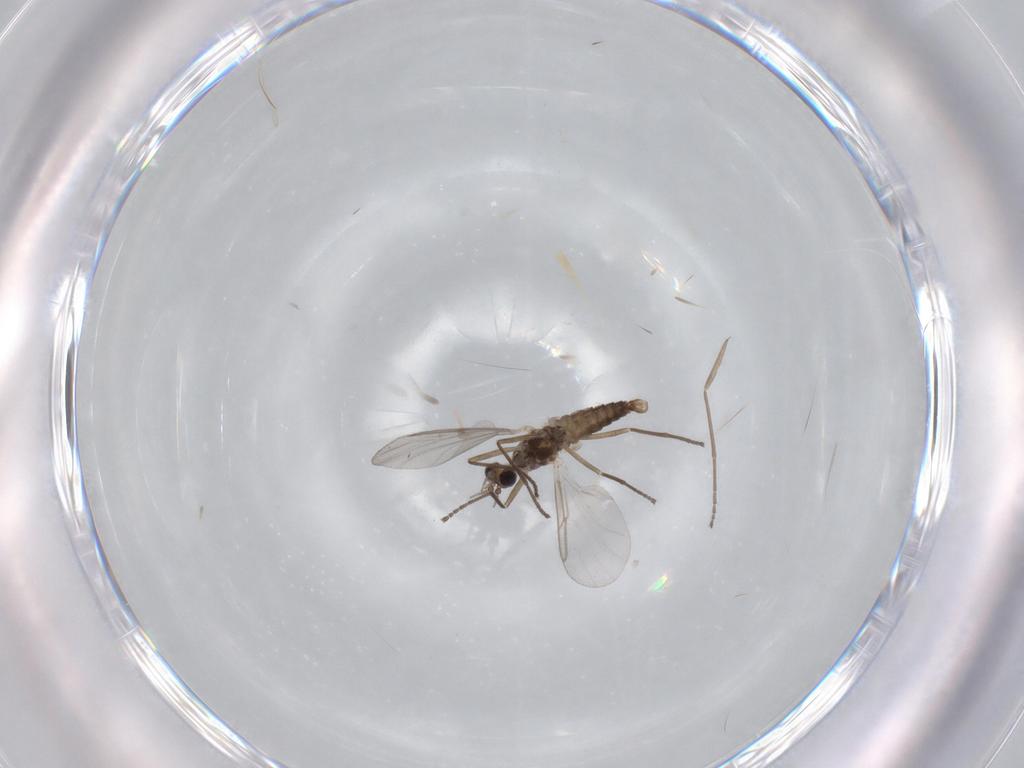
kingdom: Animalia
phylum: Arthropoda
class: Insecta
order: Diptera
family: Cecidomyiidae
